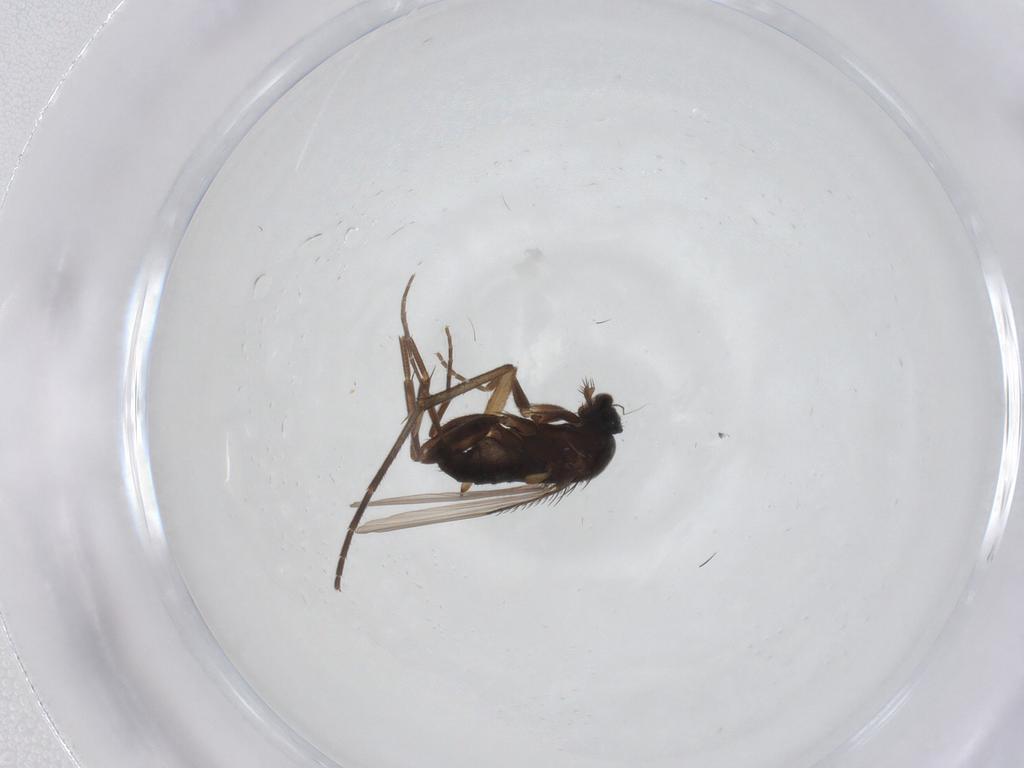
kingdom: Animalia
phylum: Arthropoda
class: Insecta
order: Diptera
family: Phoridae
